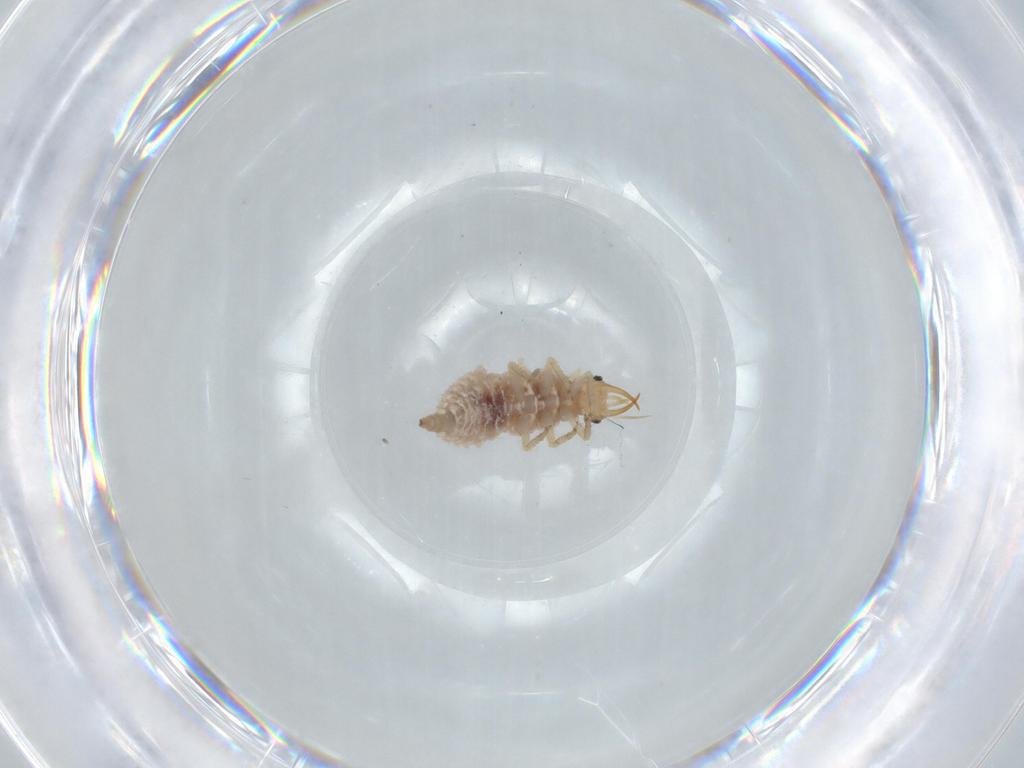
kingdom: Animalia
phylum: Arthropoda
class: Insecta
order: Neuroptera
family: Chrysopidae
